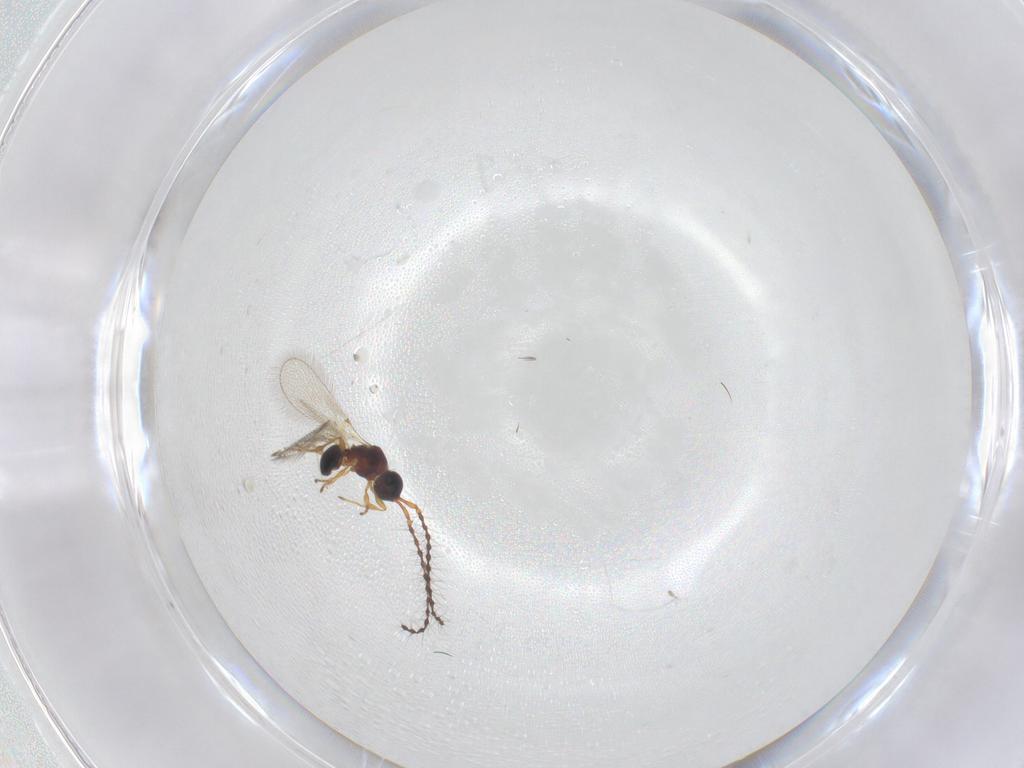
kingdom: Animalia
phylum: Arthropoda
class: Insecta
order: Hymenoptera
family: Diapriidae
